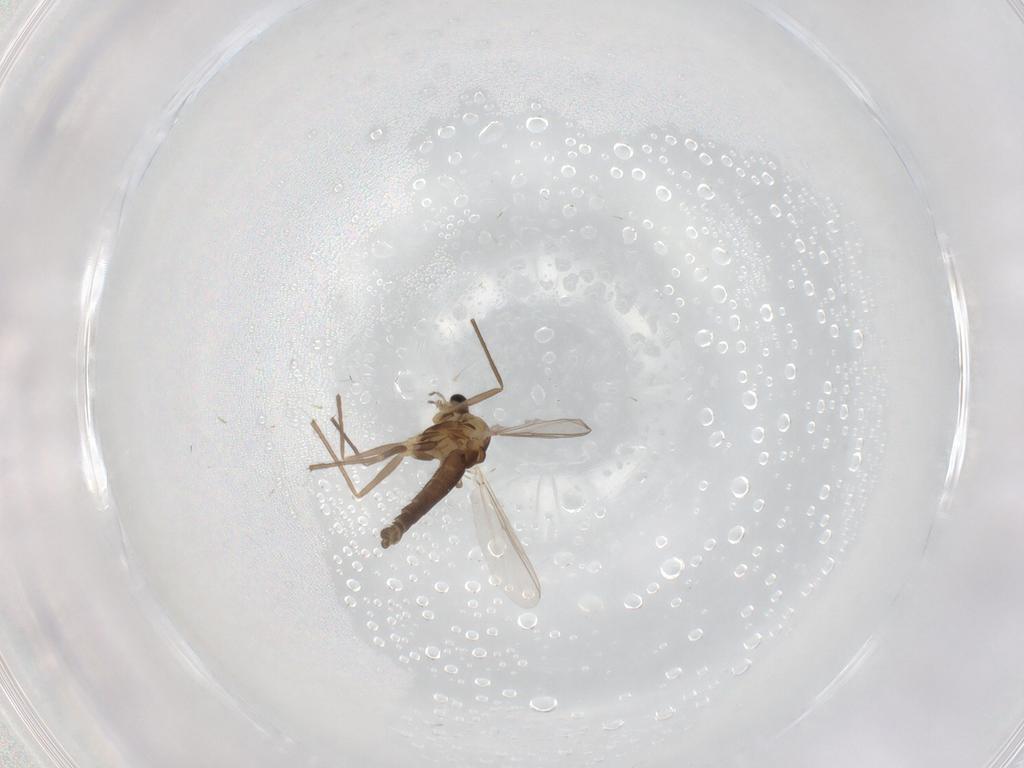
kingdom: Animalia
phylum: Arthropoda
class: Insecta
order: Diptera
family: Chironomidae
